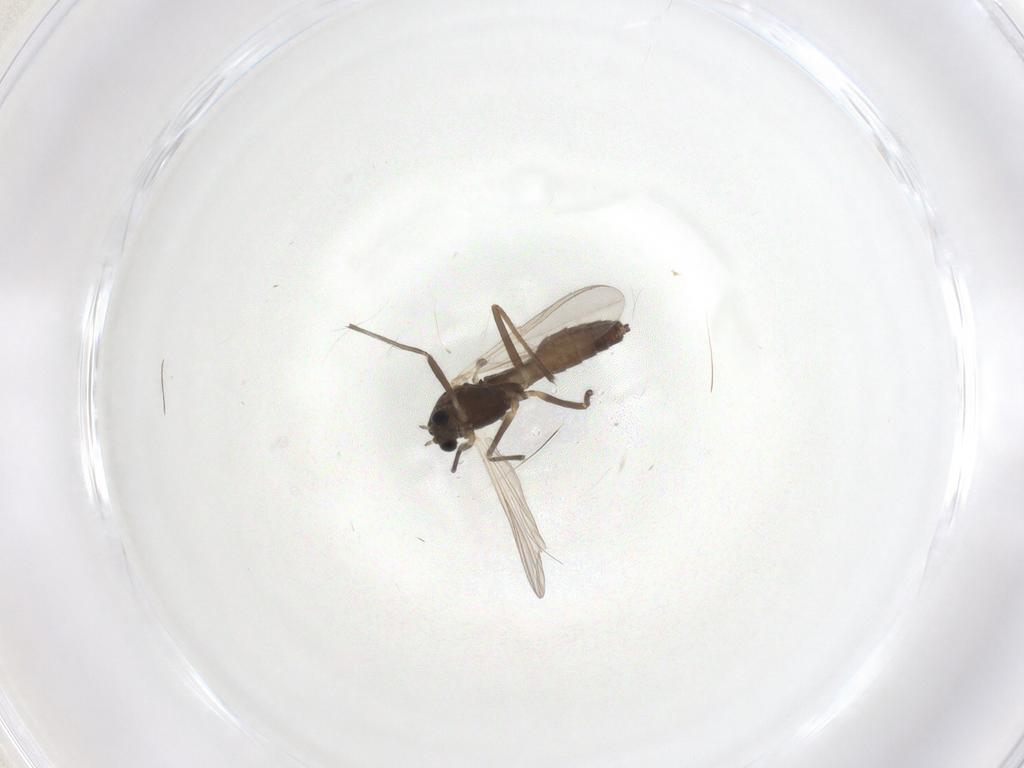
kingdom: Animalia
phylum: Arthropoda
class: Insecta
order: Diptera
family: Chironomidae
